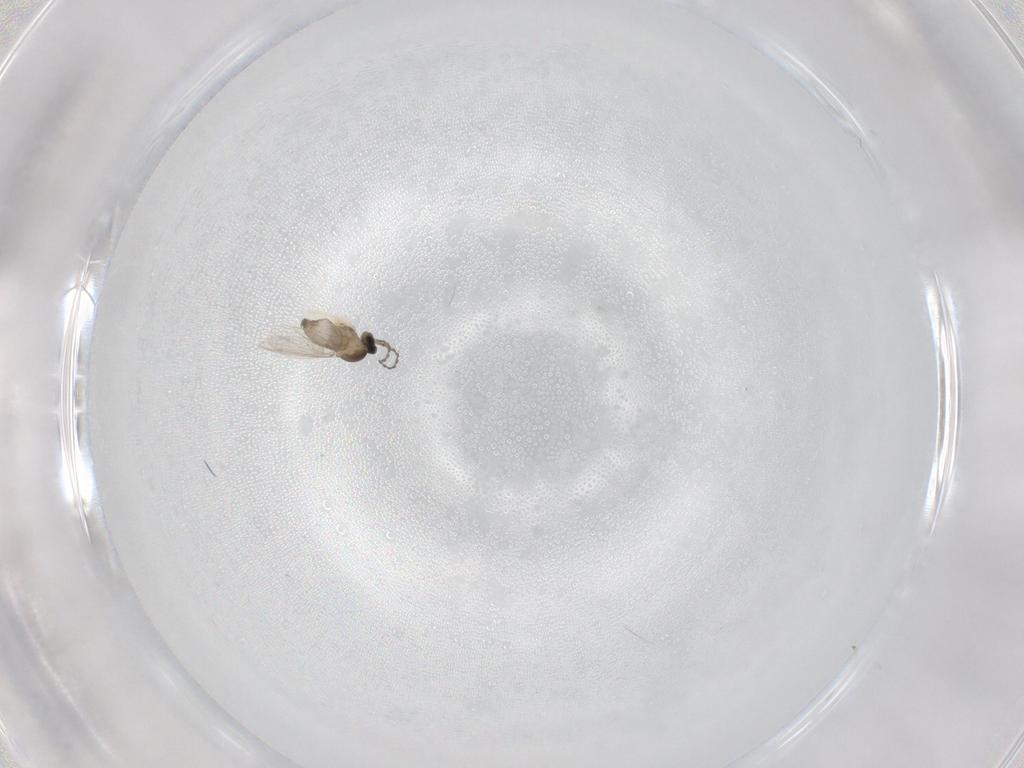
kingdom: Animalia
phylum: Arthropoda
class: Insecta
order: Diptera
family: Cecidomyiidae
